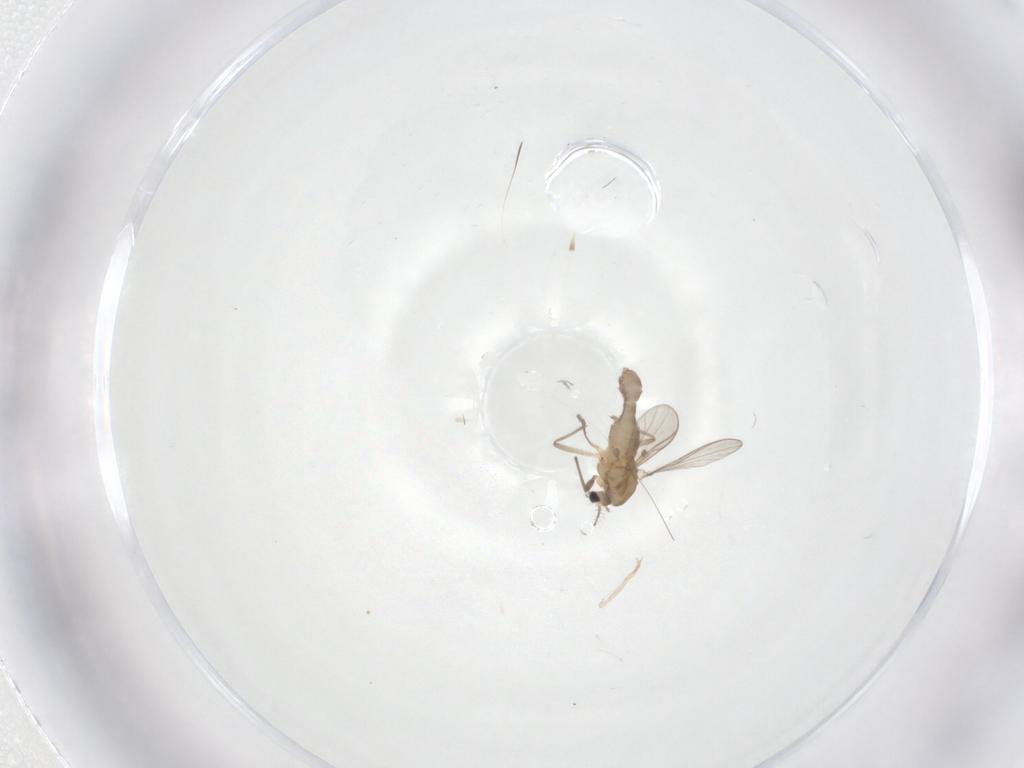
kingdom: Animalia
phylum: Arthropoda
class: Insecta
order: Diptera
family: Chironomidae
